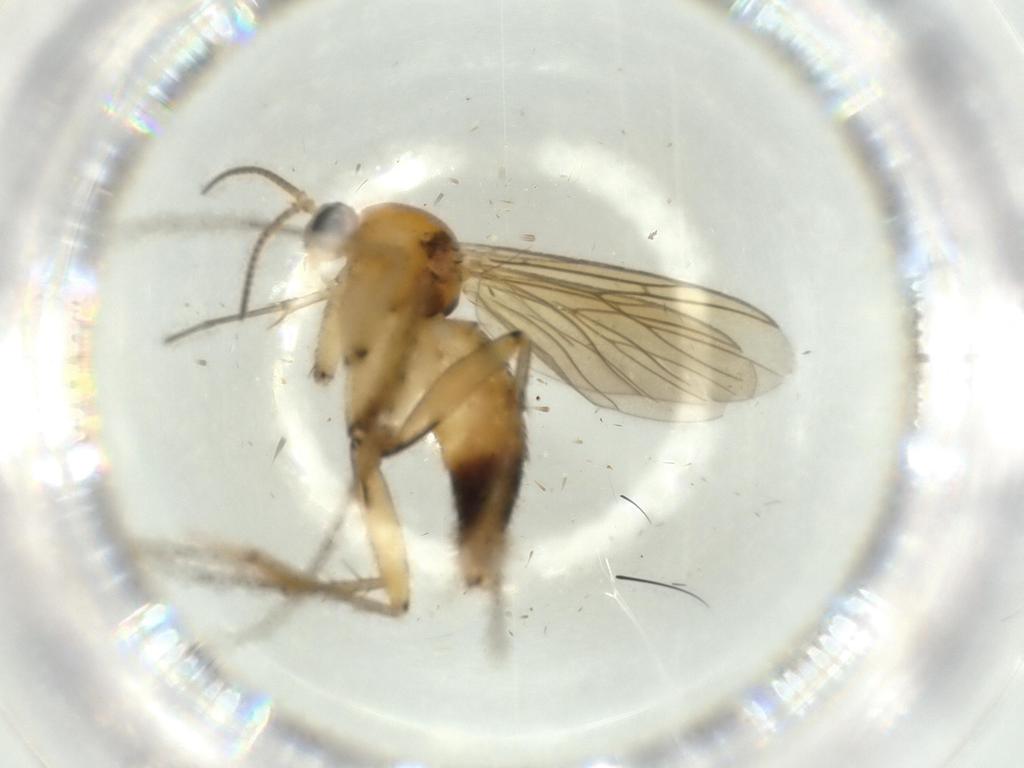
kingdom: Animalia
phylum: Arthropoda
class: Insecta
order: Diptera
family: Mycetophilidae
